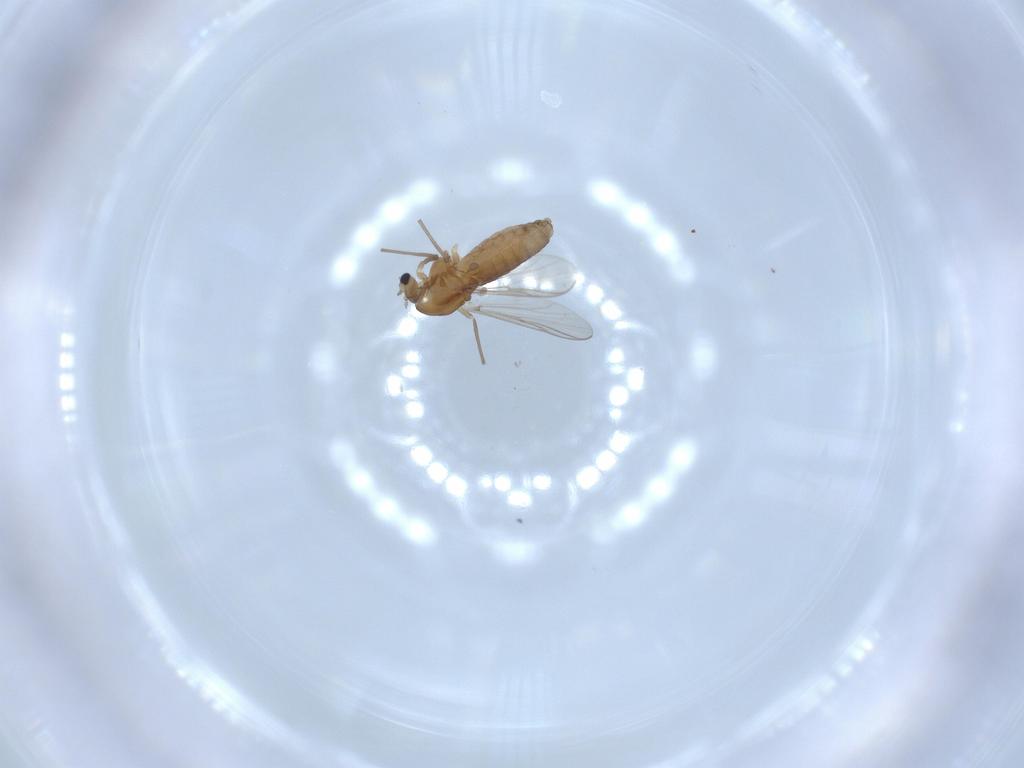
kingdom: Animalia
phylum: Arthropoda
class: Insecta
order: Diptera
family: Chironomidae
